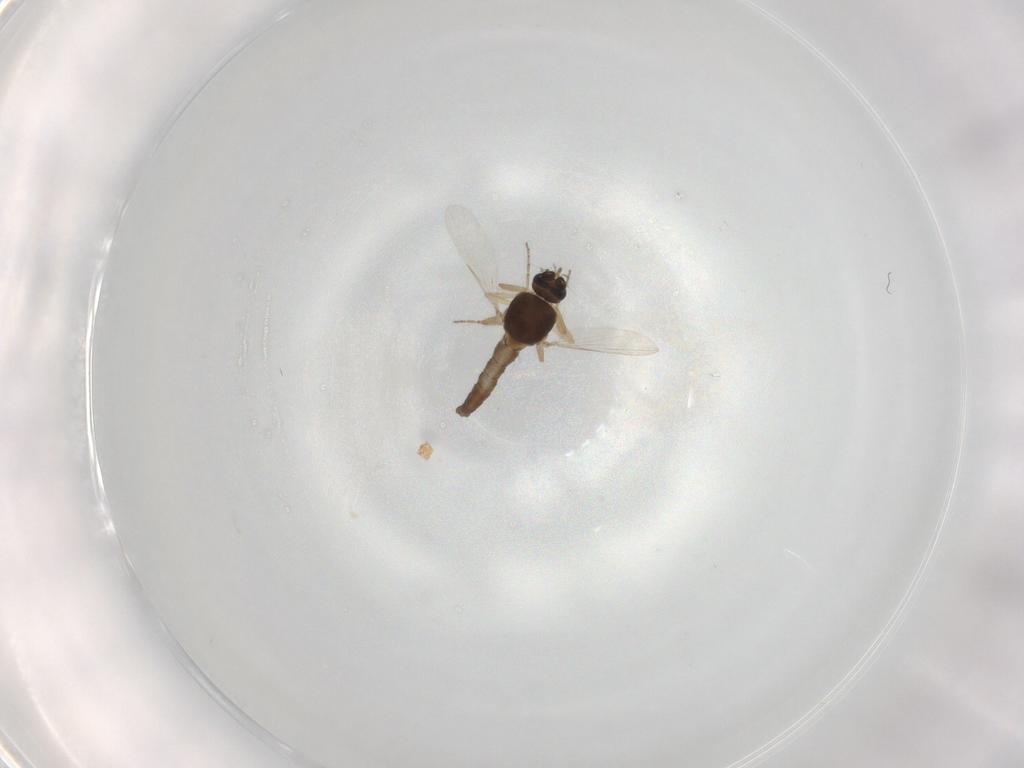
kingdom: Animalia
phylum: Arthropoda
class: Insecta
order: Diptera
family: Ceratopogonidae
